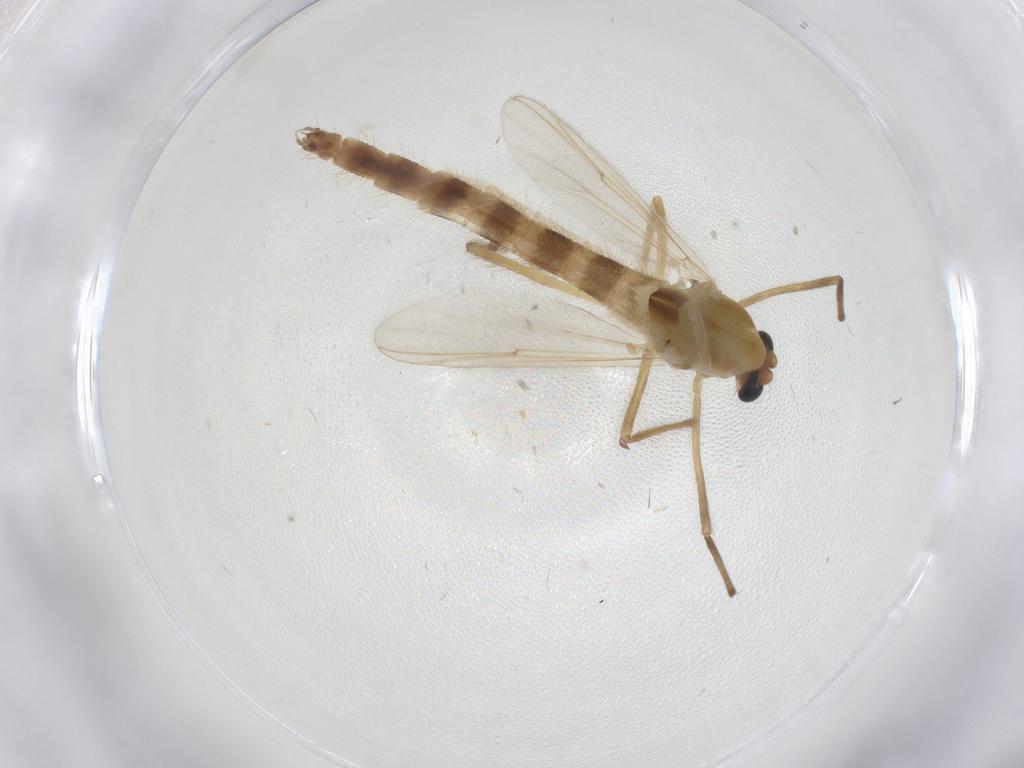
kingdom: Animalia
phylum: Arthropoda
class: Insecta
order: Diptera
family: Chironomidae
